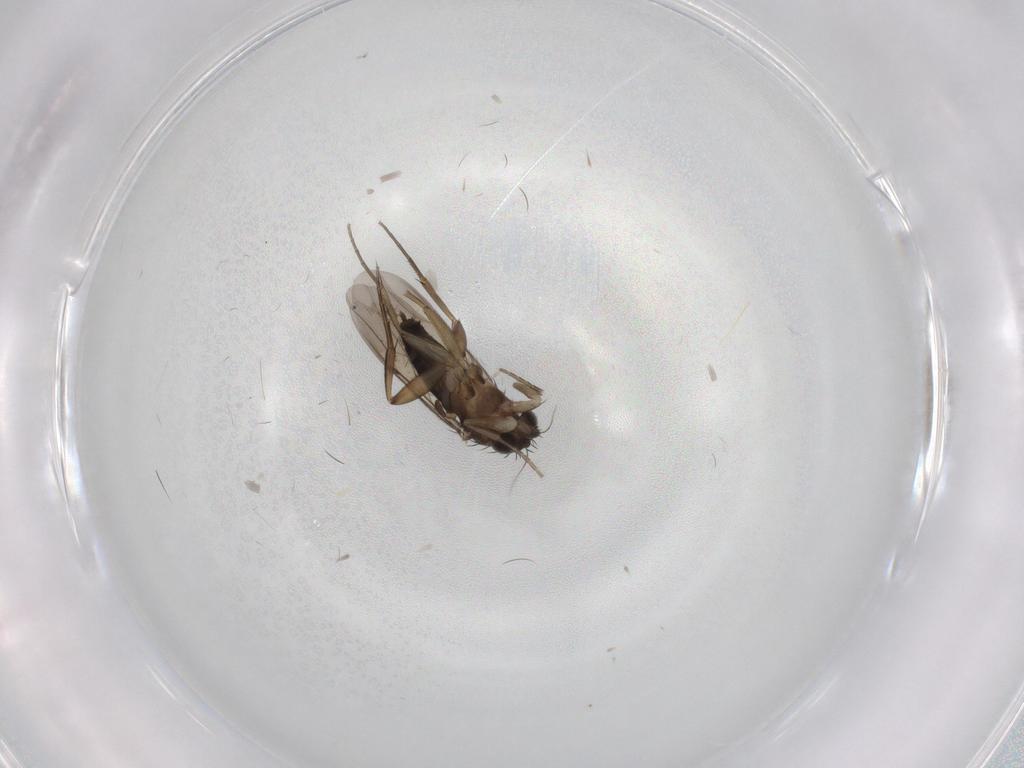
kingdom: Animalia
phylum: Arthropoda
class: Insecta
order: Diptera
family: Phoridae
